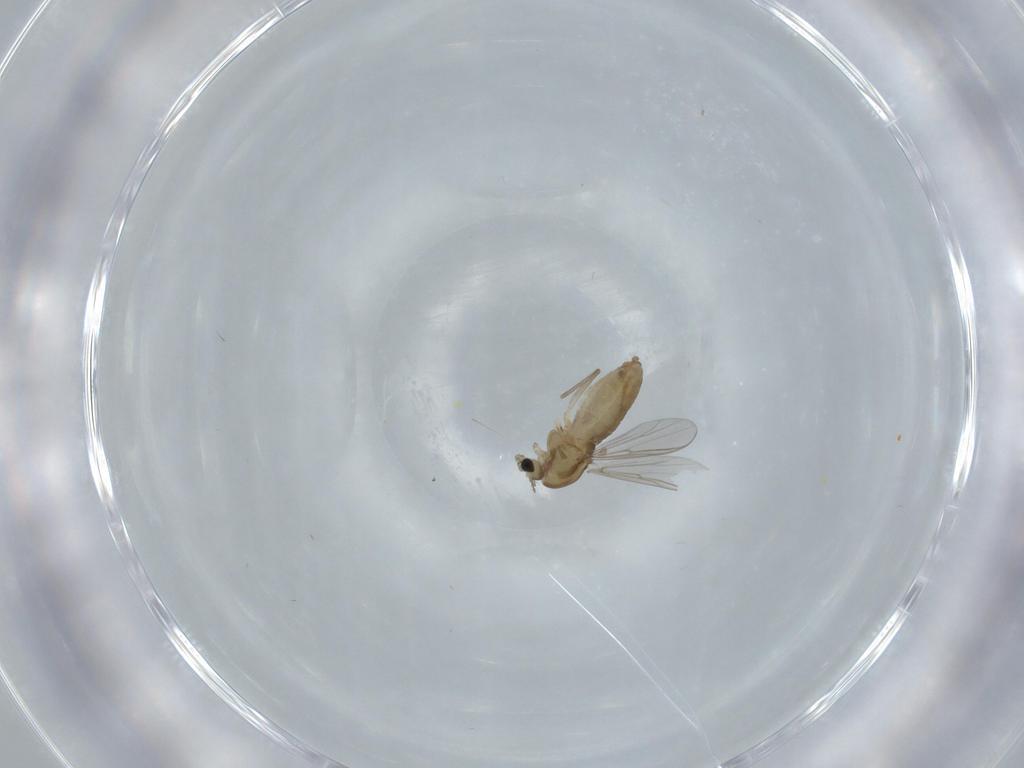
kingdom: Animalia
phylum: Arthropoda
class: Insecta
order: Diptera
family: Chironomidae
